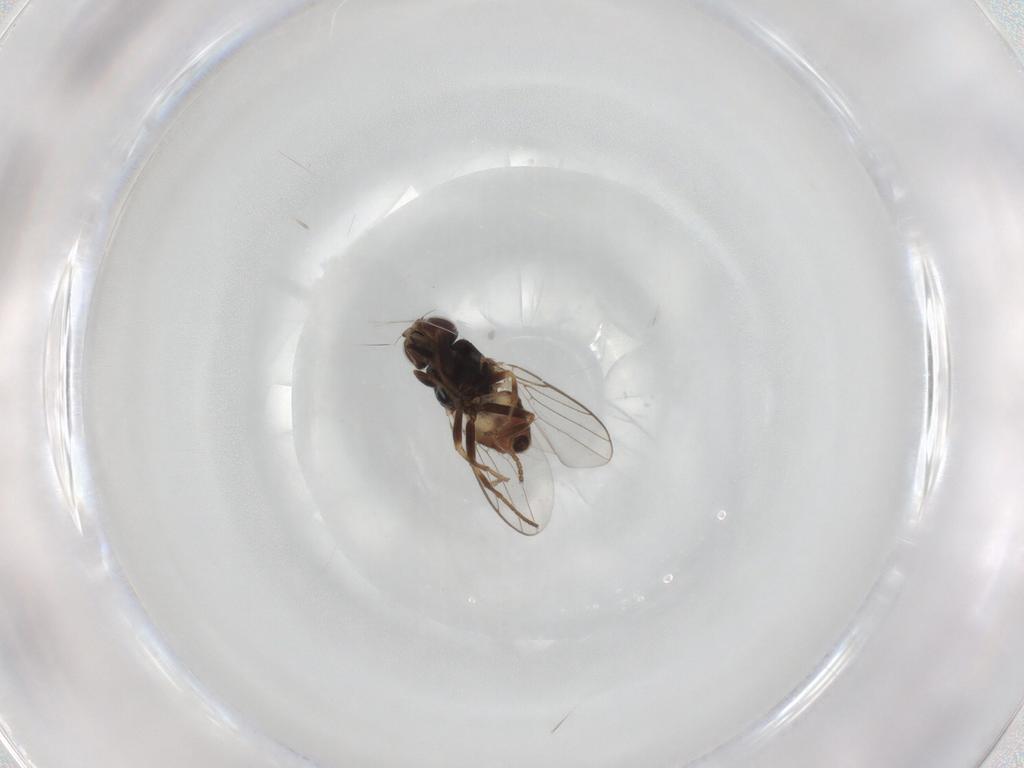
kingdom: Animalia
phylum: Arthropoda
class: Insecta
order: Diptera
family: Chloropidae
